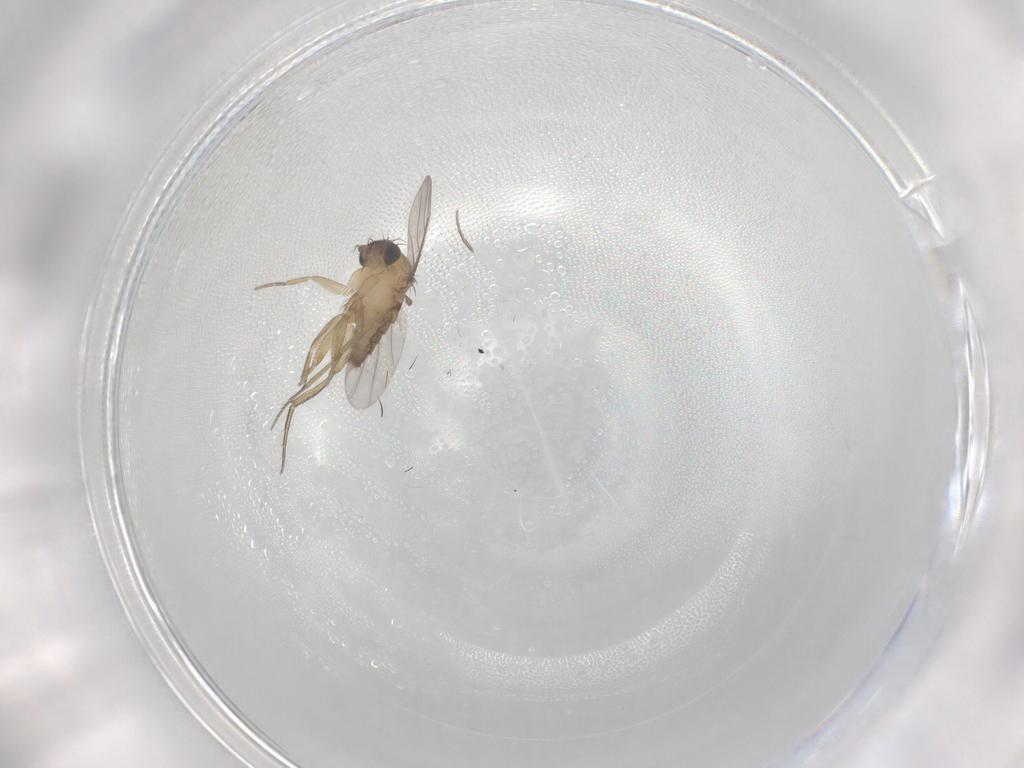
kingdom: Animalia
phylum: Arthropoda
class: Insecta
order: Diptera
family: Phoridae
